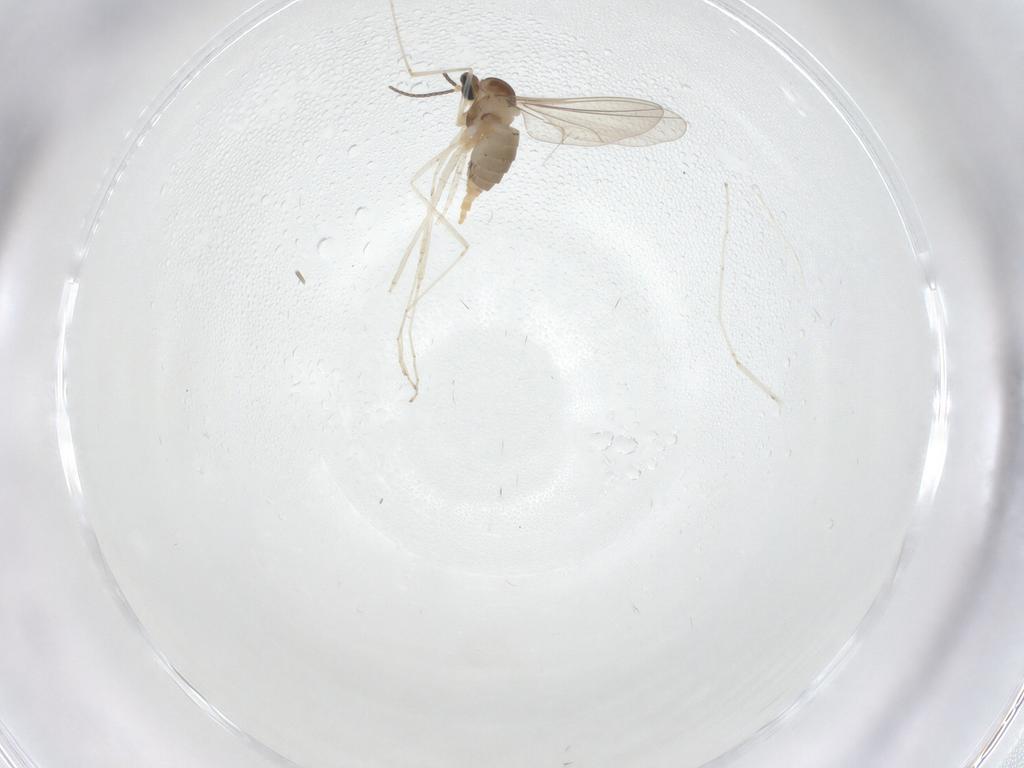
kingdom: Animalia
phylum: Arthropoda
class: Insecta
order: Diptera
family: Cecidomyiidae
